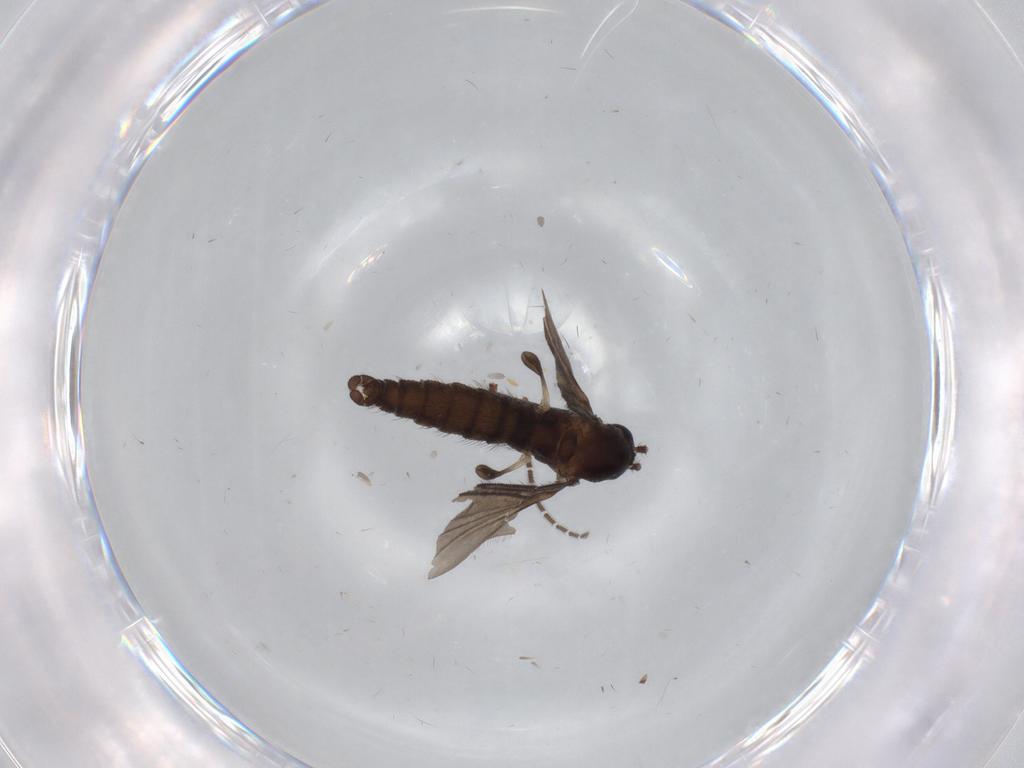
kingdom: Animalia
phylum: Arthropoda
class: Insecta
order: Diptera
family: Sciaridae
